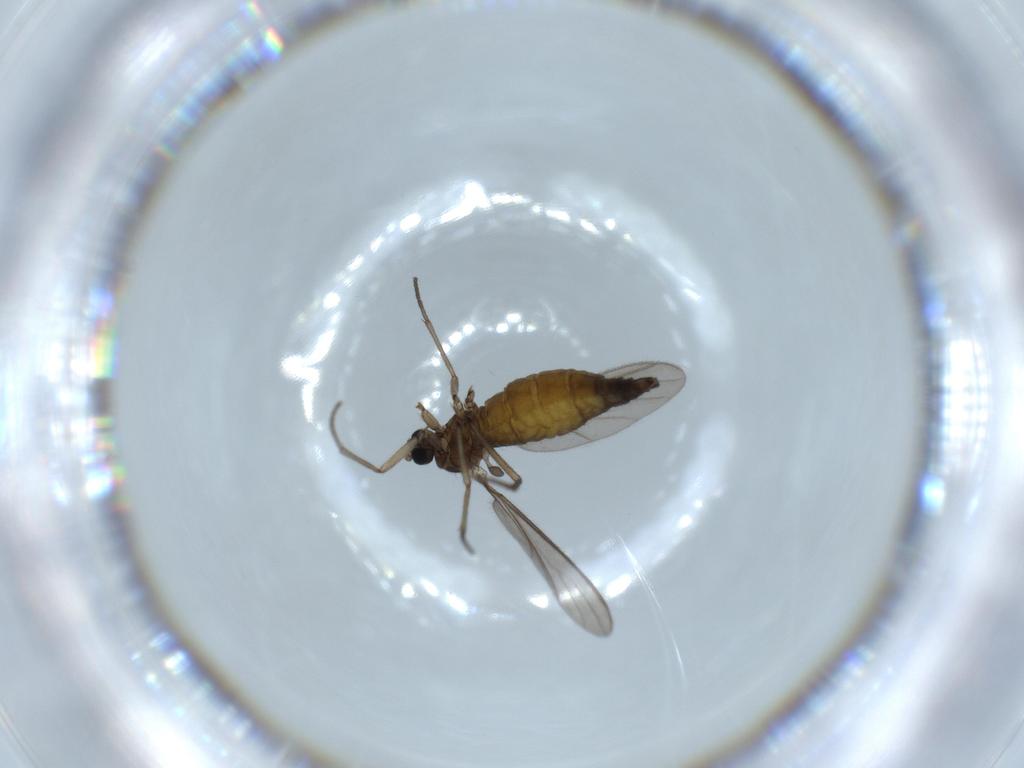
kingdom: Animalia
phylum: Arthropoda
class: Insecta
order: Diptera
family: Sciaridae
